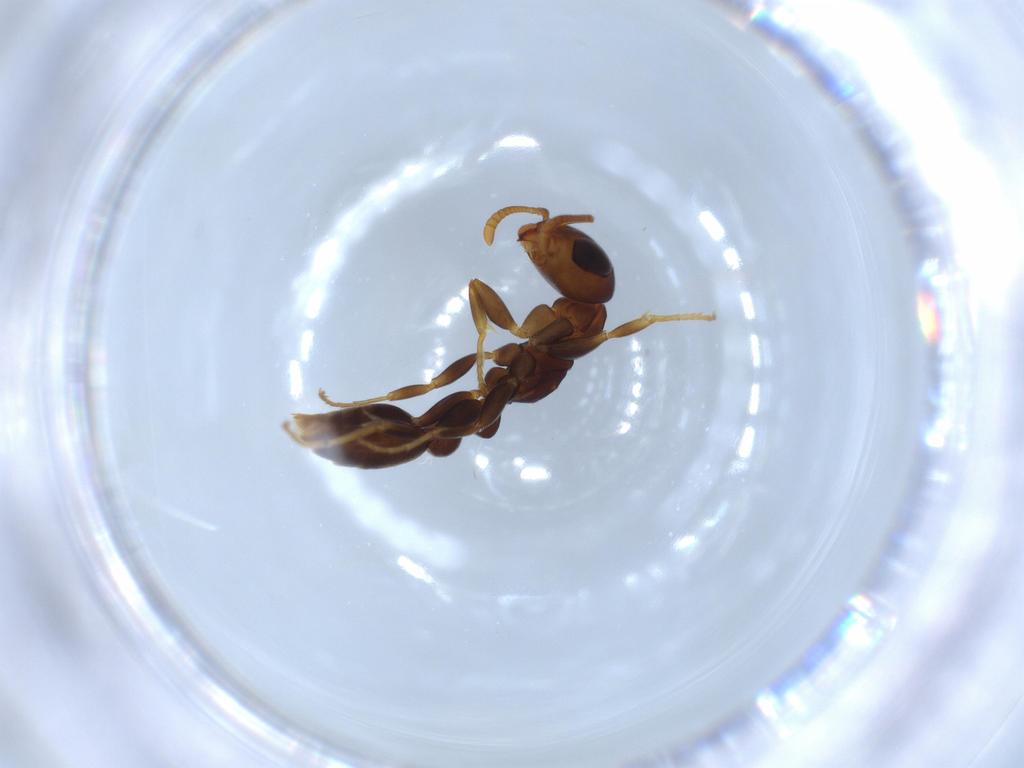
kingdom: Animalia
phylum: Arthropoda
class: Insecta
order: Hymenoptera
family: Formicidae
